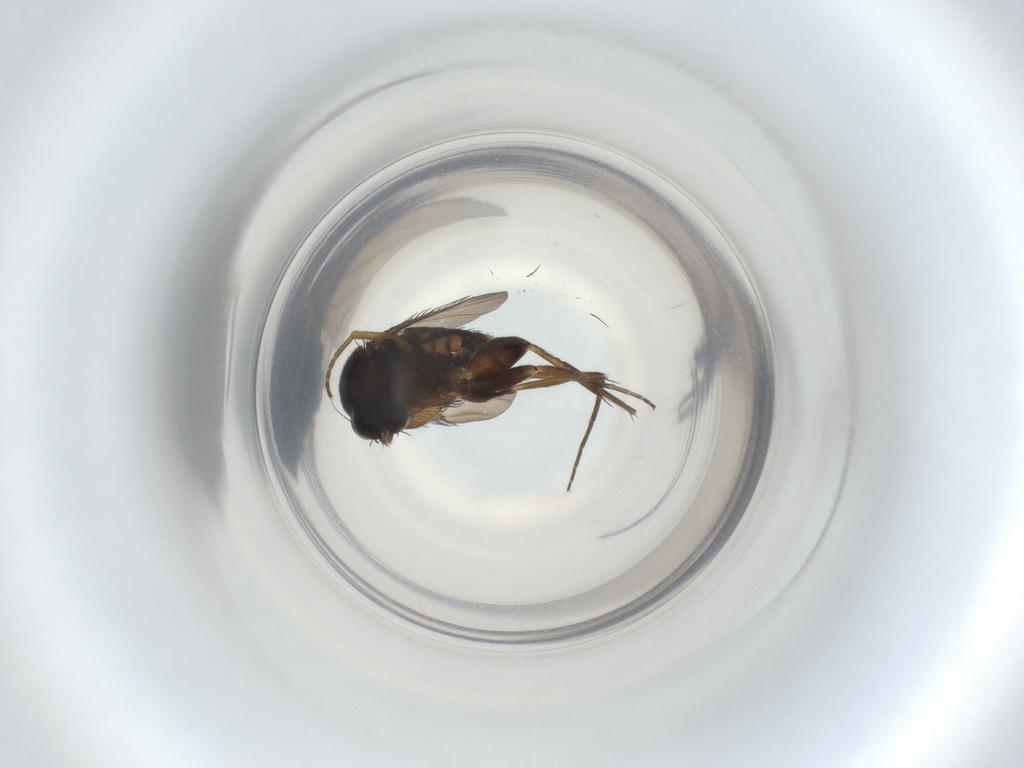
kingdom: Animalia
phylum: Arthropoda
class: Insecta
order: Diptera
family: Phoridae
